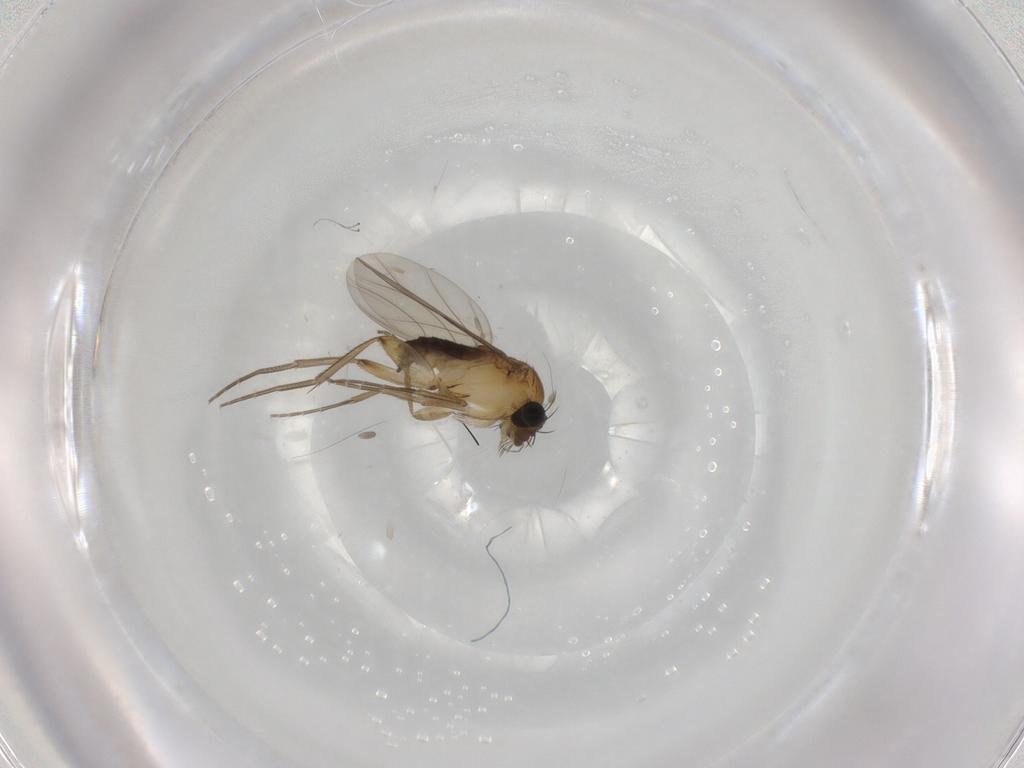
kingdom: Animalia
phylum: Arthropoda
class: Insecta
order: Diptera
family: Phoridae
